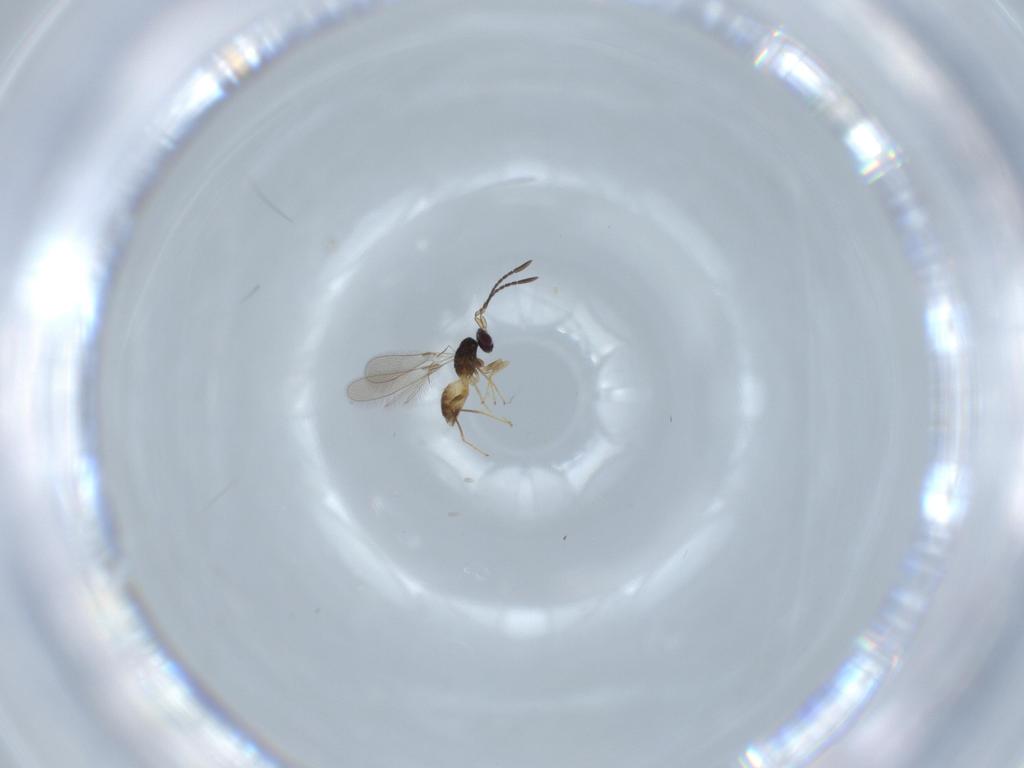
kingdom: Animalia
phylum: Arthropoda
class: Insecta
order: Hymenoptera
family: Mymaridae
